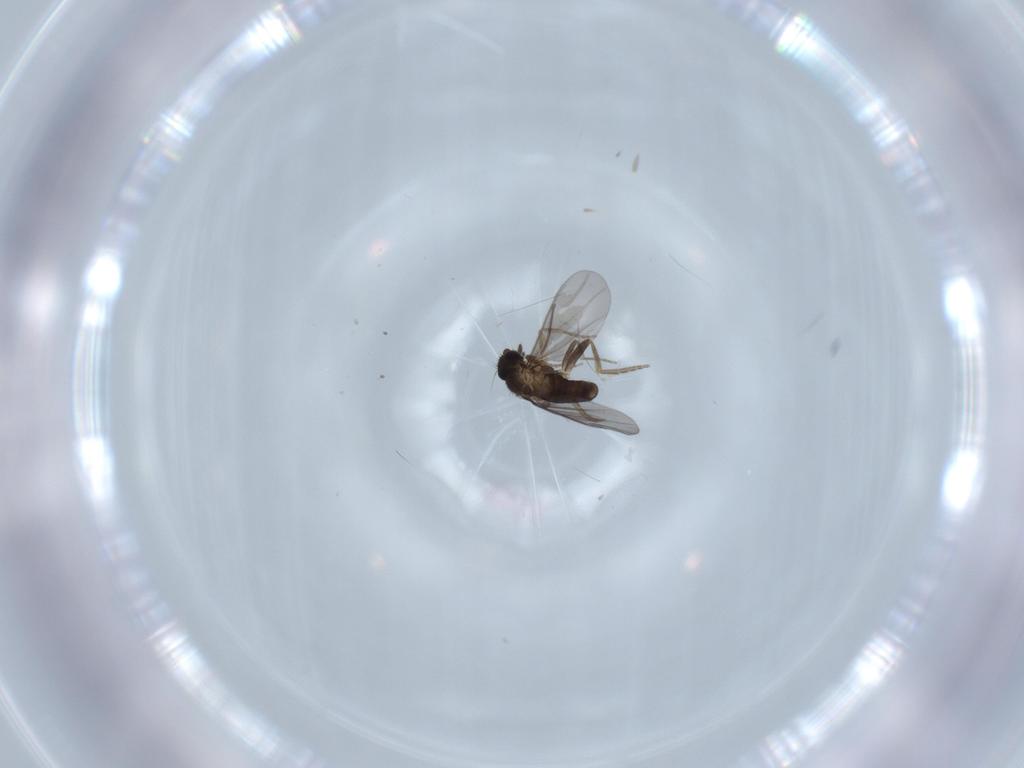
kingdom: Animalia
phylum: Arthropoda
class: Insecta
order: Diptera
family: Phoridae
